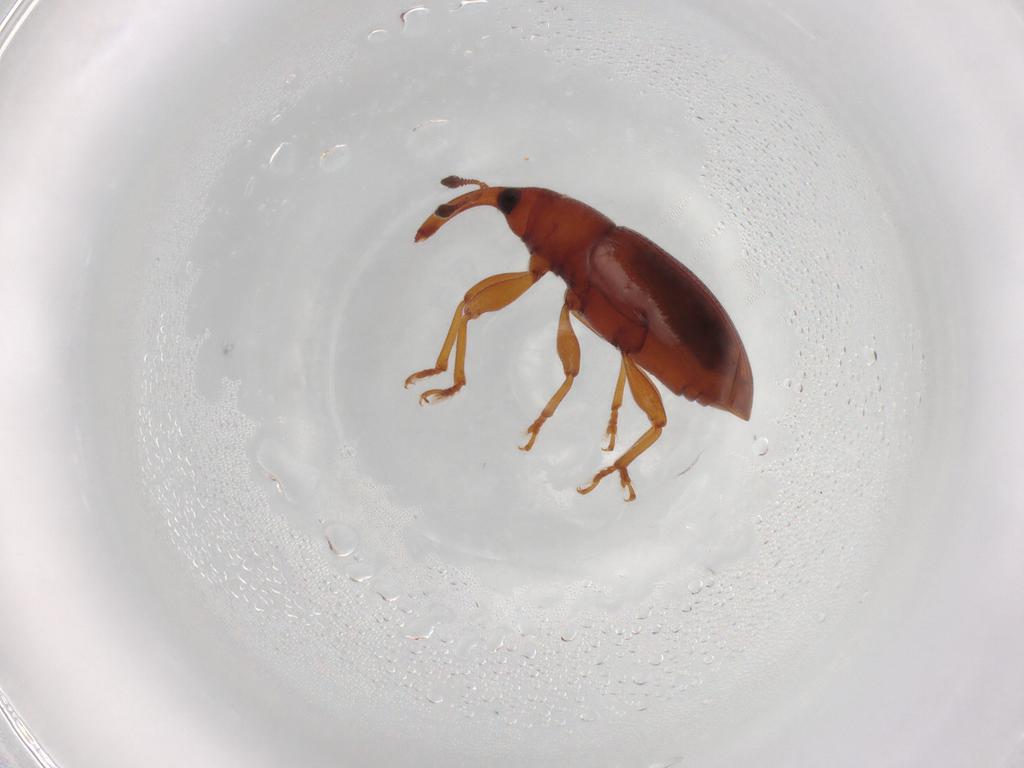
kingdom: Animalia
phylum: Arthropoda
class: Insecta
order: Coleoptera
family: Curculionidae
